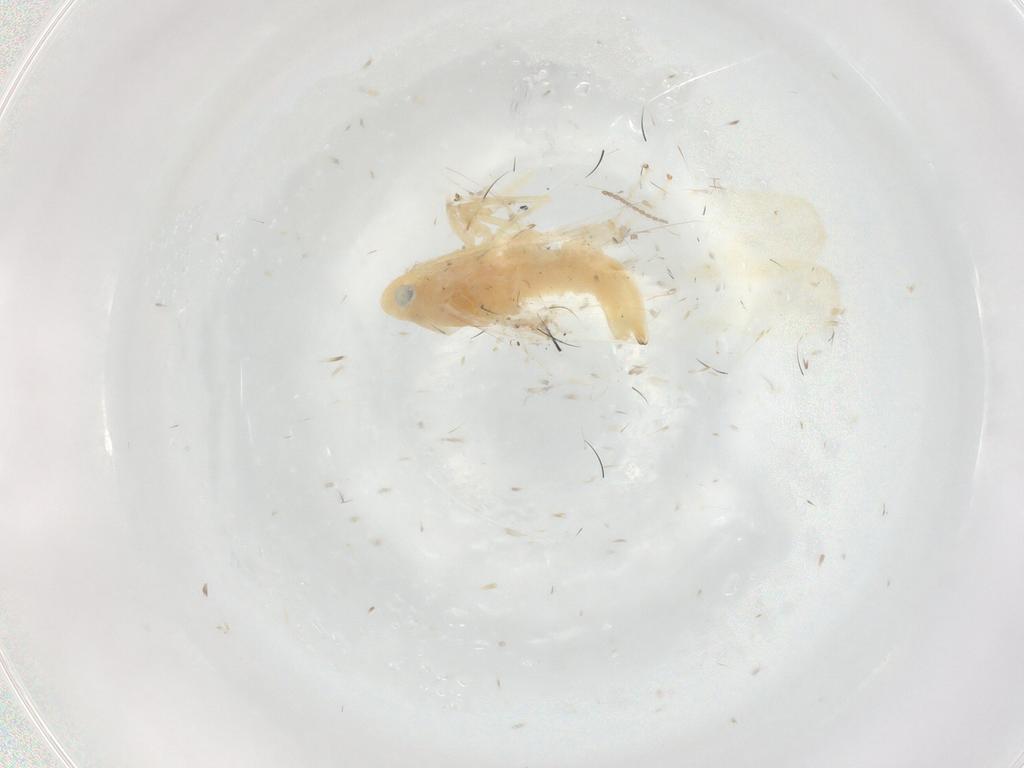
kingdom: Animalia
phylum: Arthropoda
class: Insecta
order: Hemiptera
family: Cicadellidae
